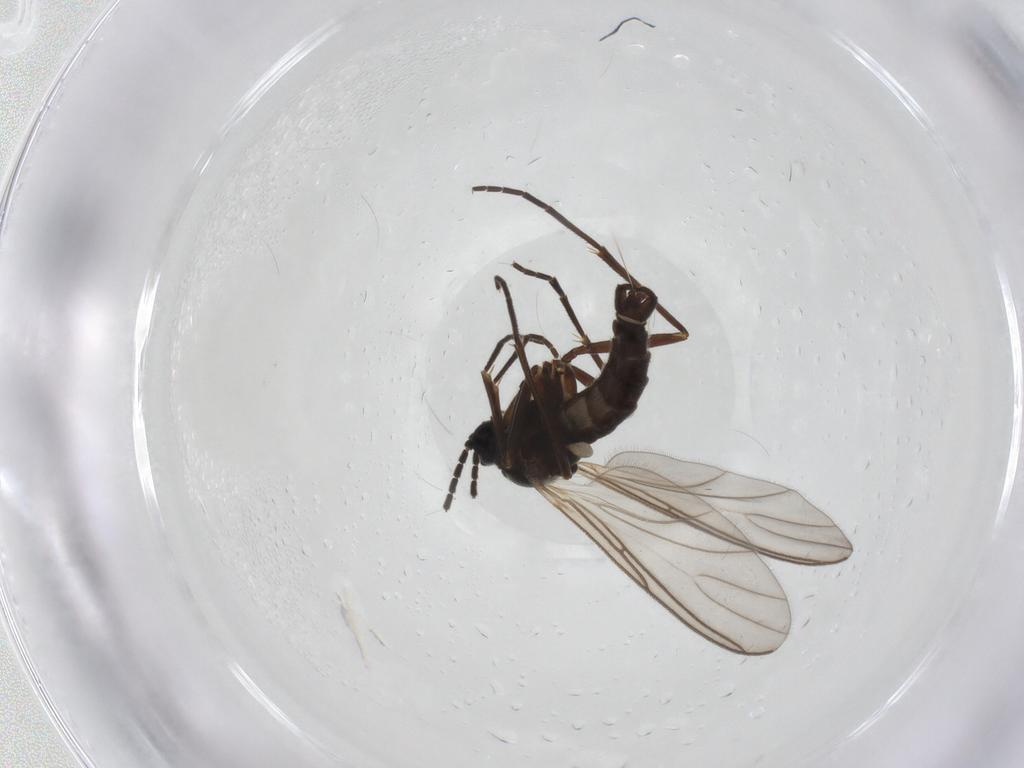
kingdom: Animalia
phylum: Arthropoda
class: Insecta
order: Diptera
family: Sciaridae
